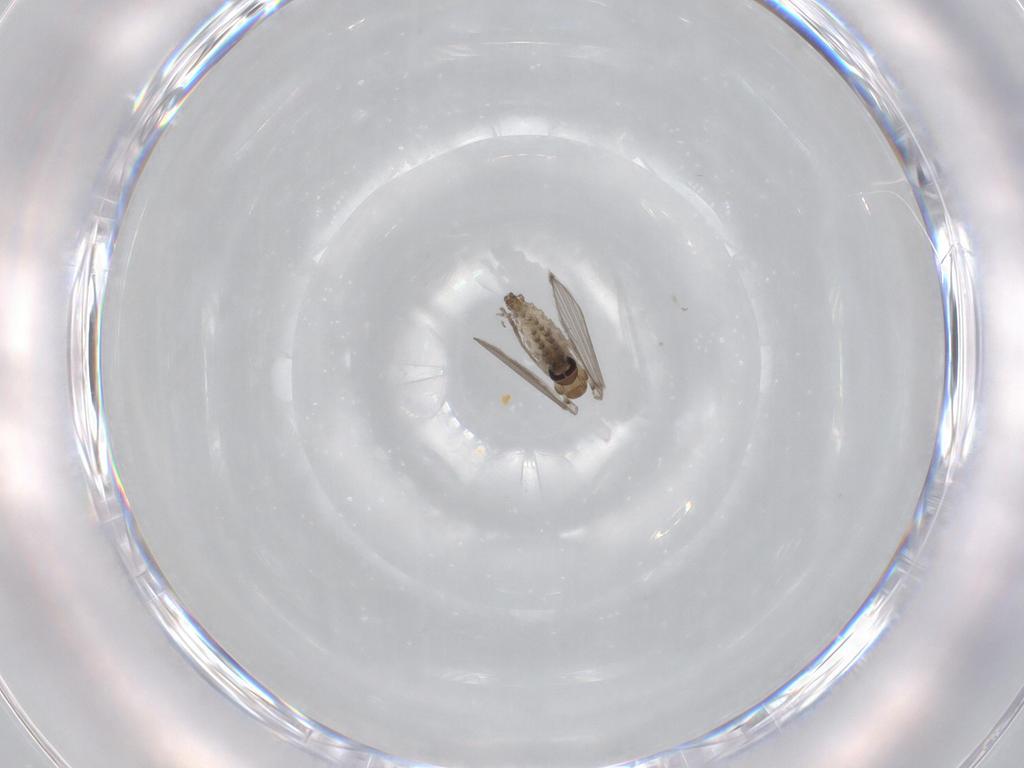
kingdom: Animalia
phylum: Arthropoda
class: Insecta
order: Diptera
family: Psychodidae
